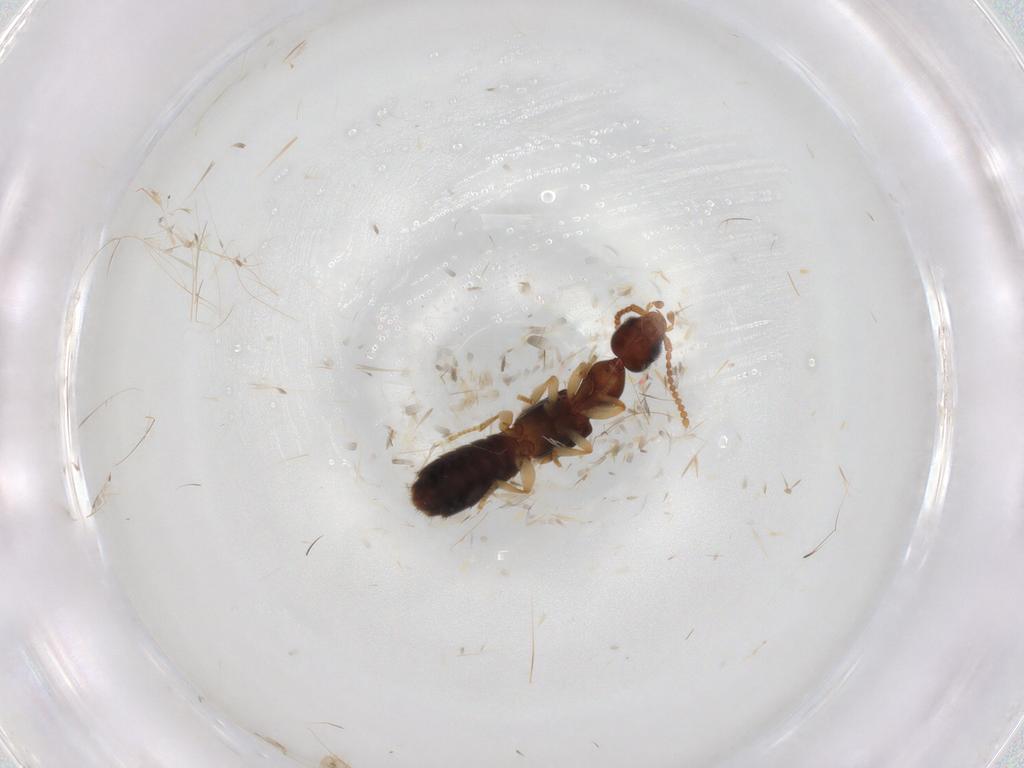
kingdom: Animalia
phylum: Arthropoda
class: Insecta
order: Coleoptera
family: Staphylinidae
